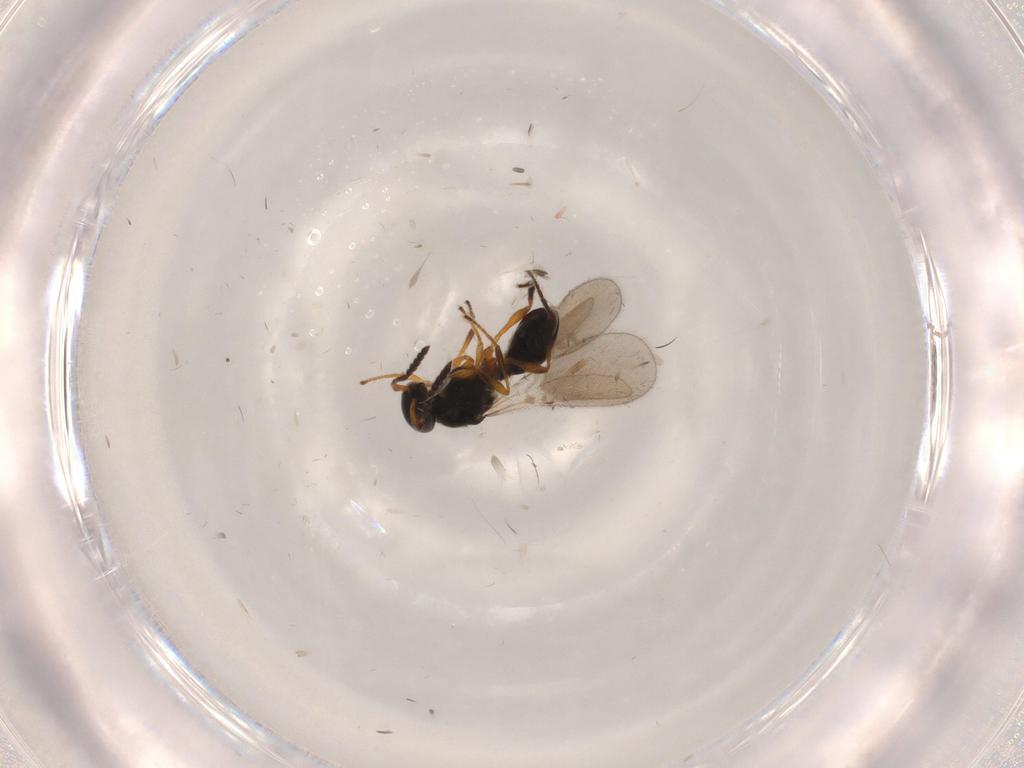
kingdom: Animalia
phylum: Arthropoda
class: Insecta
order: Hymenoptera
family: Platygastridae
